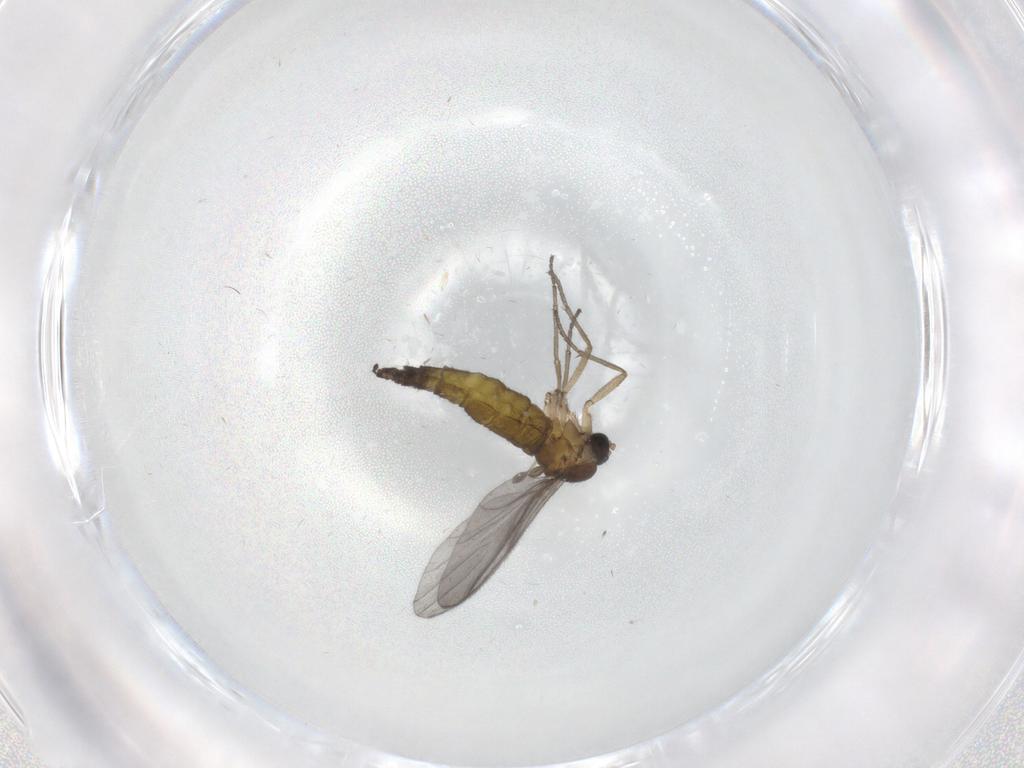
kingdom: Animalia
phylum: Arthropoda
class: Insecta
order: Diptera
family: Sciaridae
